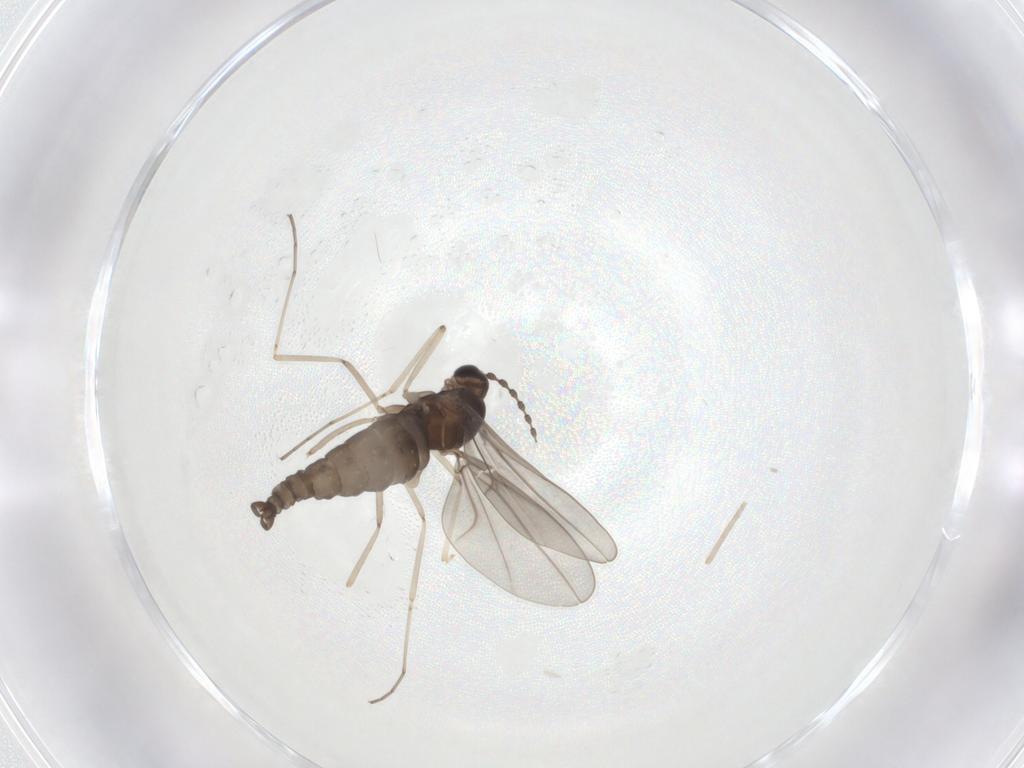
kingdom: Animalia
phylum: Arthropoda
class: Insecta
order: Diptera
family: Cecidomyiidae
